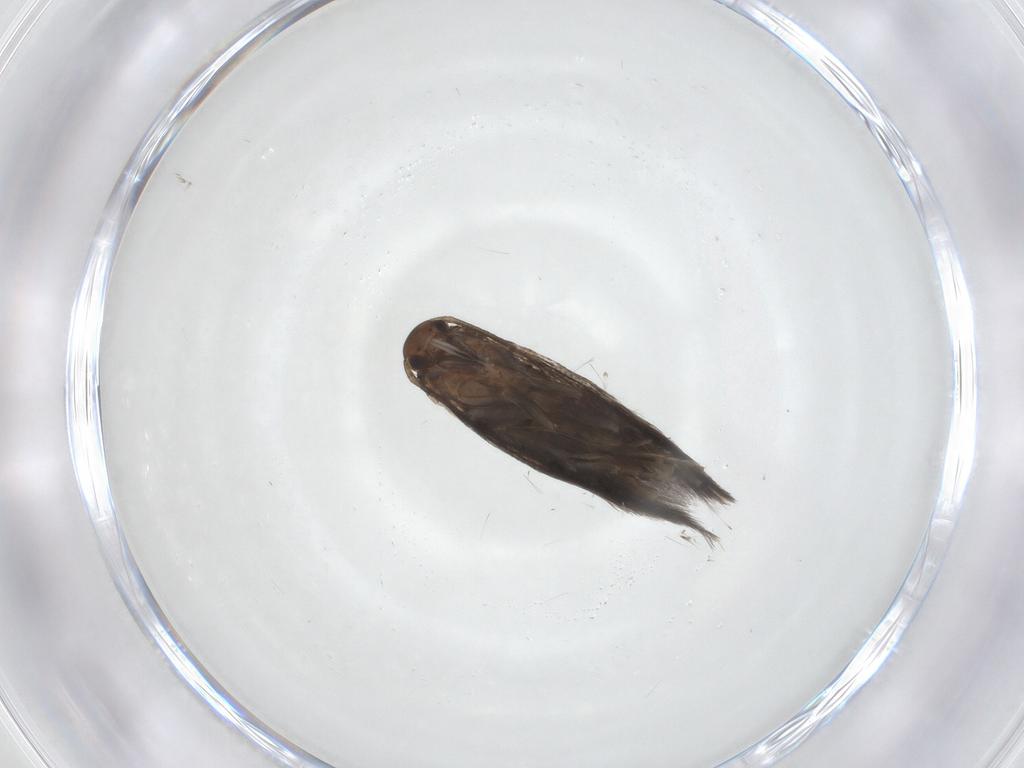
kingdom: Animalia
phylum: Arthropoda
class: Insecta
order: Lepidoptera
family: Elachistidae
